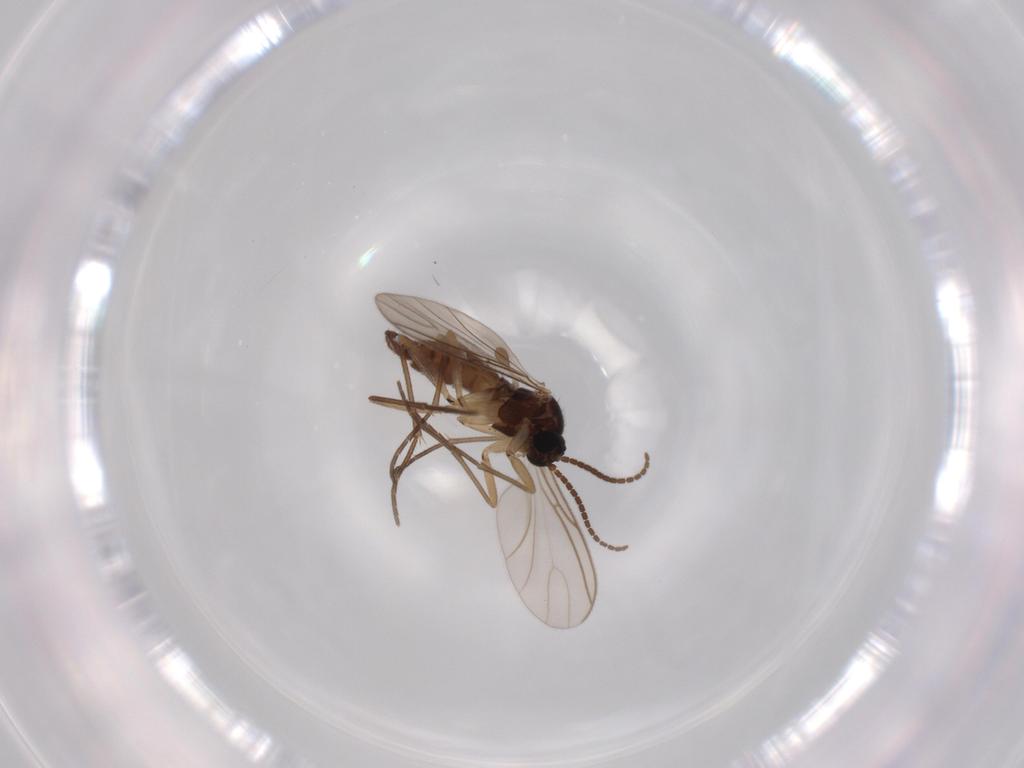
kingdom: Animalia
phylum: Arthropoda
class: Insecta
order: Diptera
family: Sciaridae
